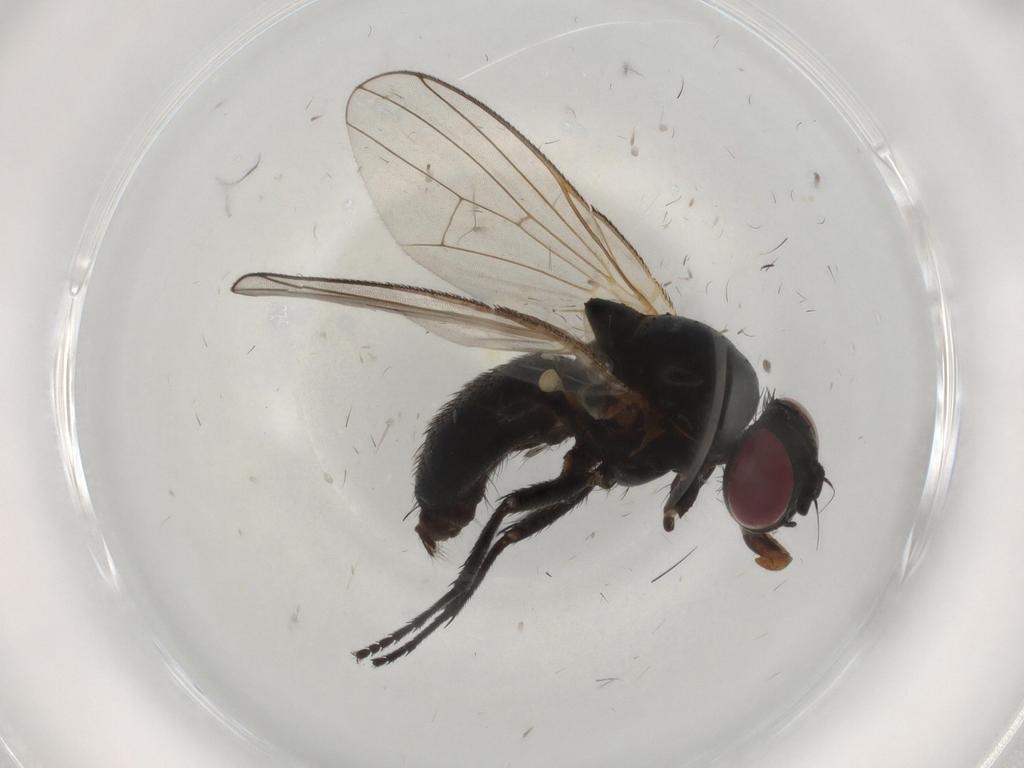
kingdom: Animalia
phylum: Arthropoda
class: Insecta
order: Diptera
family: Fannia
